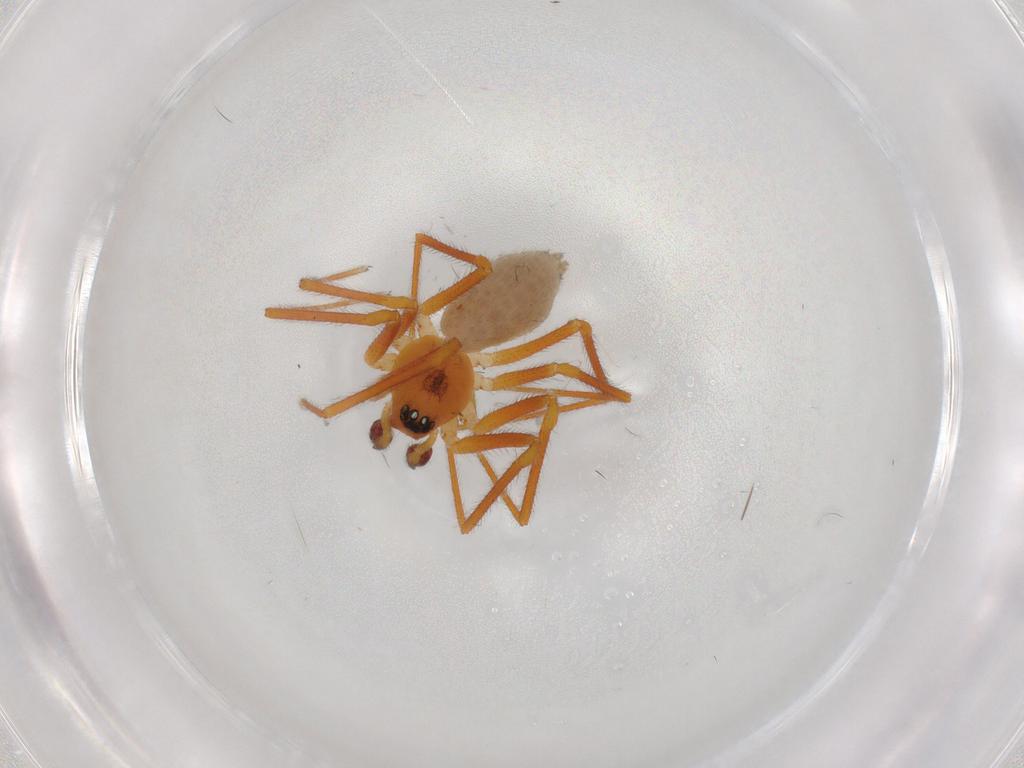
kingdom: Animalia
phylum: Arthropoda
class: Arachnida
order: Araneae
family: Linyphiidae
